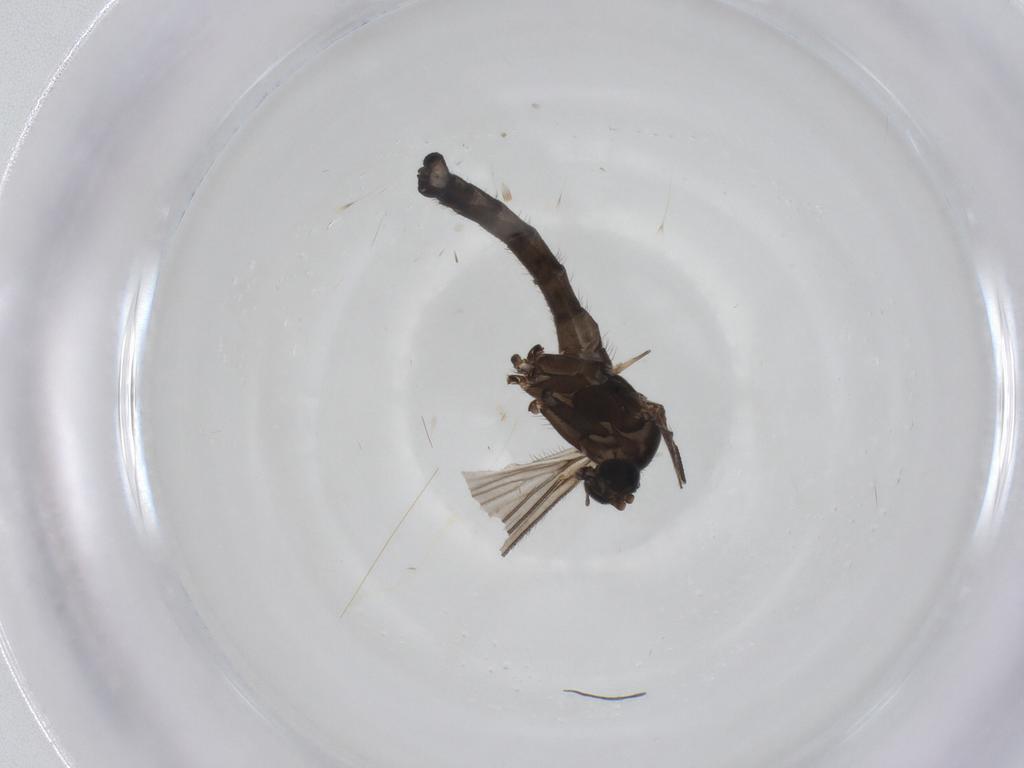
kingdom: Animalia
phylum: Arthropoda
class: Insecta
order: Diptera
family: Sciaridae
